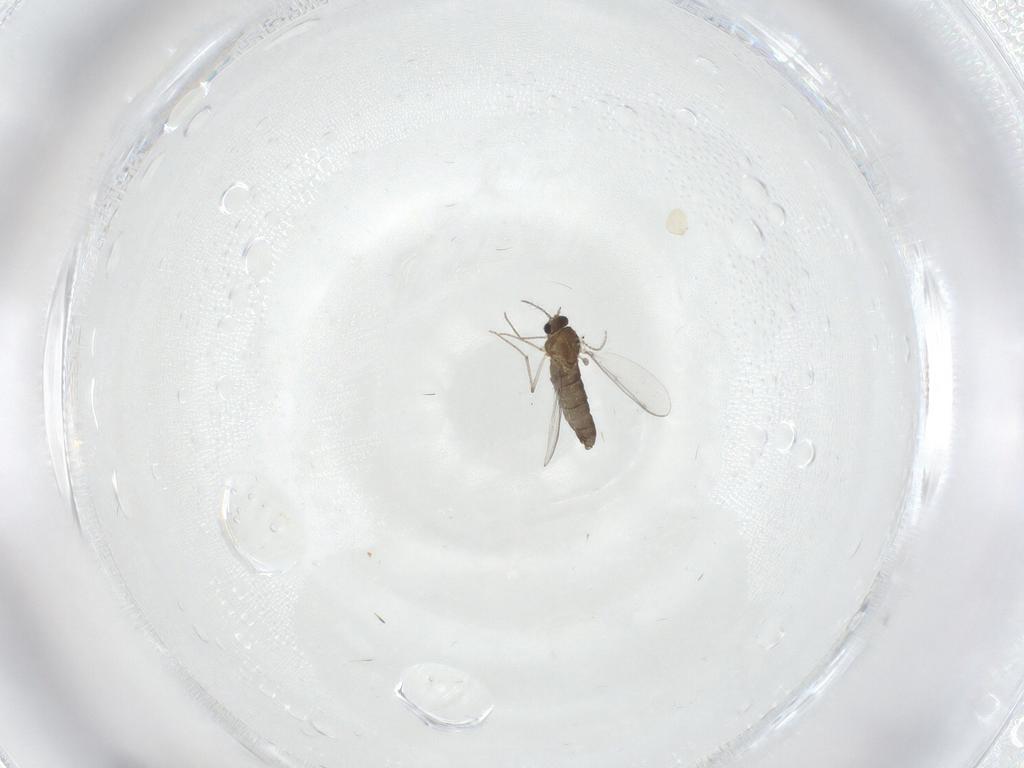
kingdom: Animalia
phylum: Arthropoda
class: Insecta
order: Diptera
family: Chironomidae
